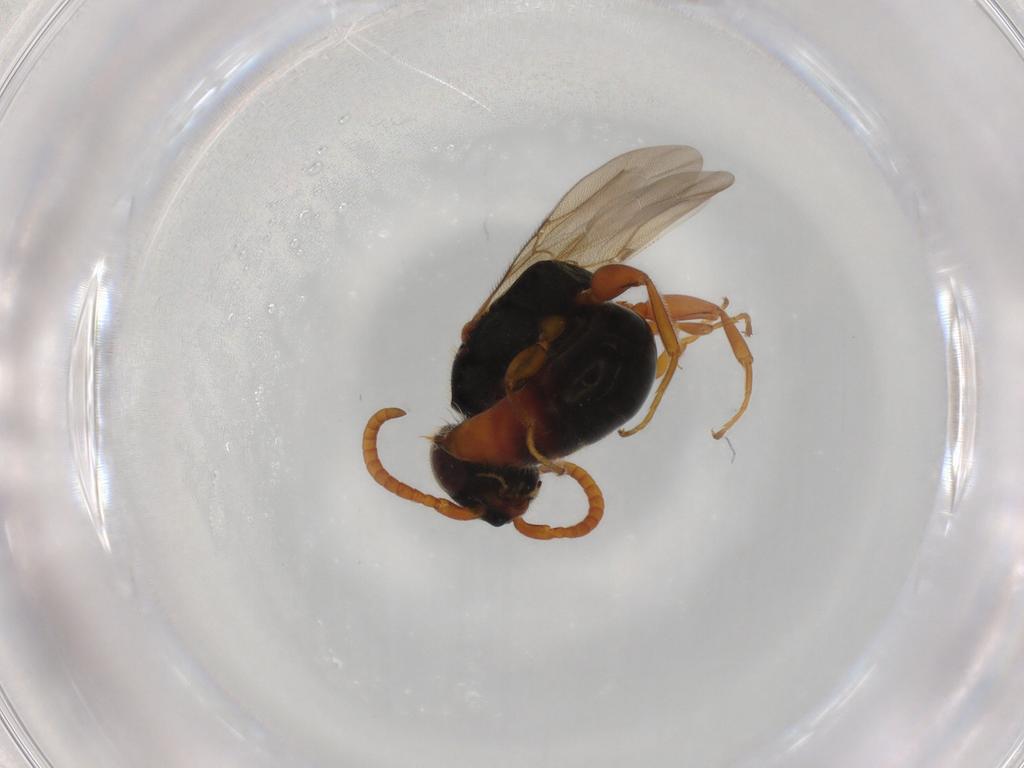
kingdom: Animalia
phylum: Arthropoda
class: Insecta
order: Hymenoptera
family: Bethylidae
